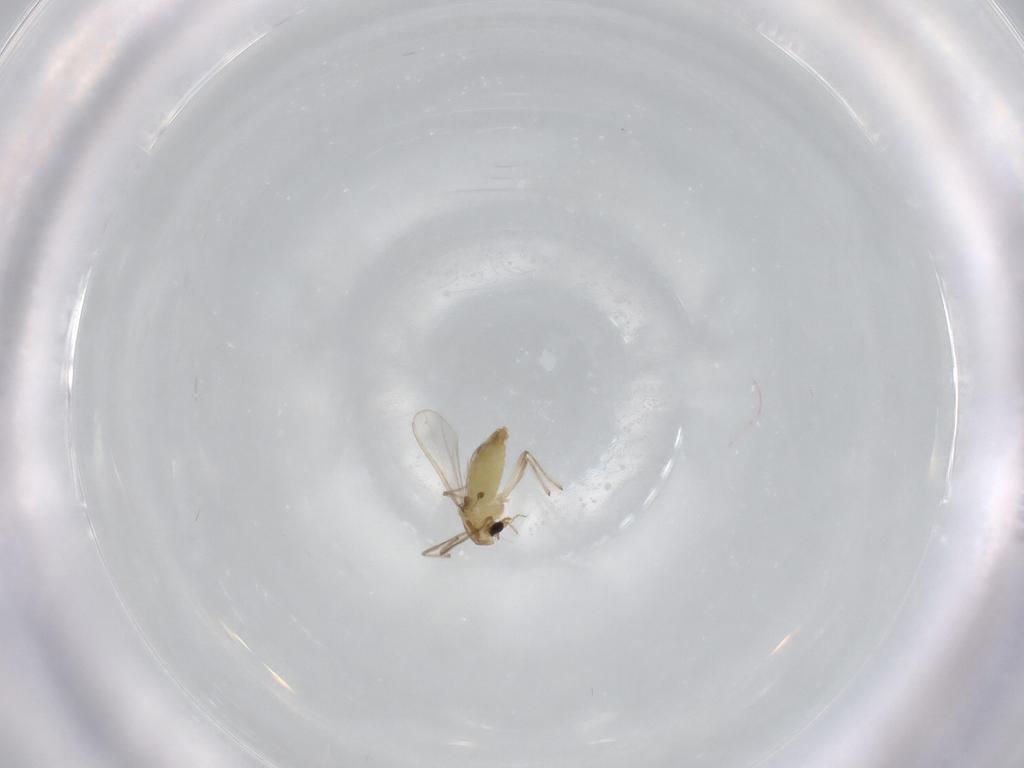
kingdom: Animalia
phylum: Arthropoda
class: Insecta
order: Diptera
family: Chironomidae
